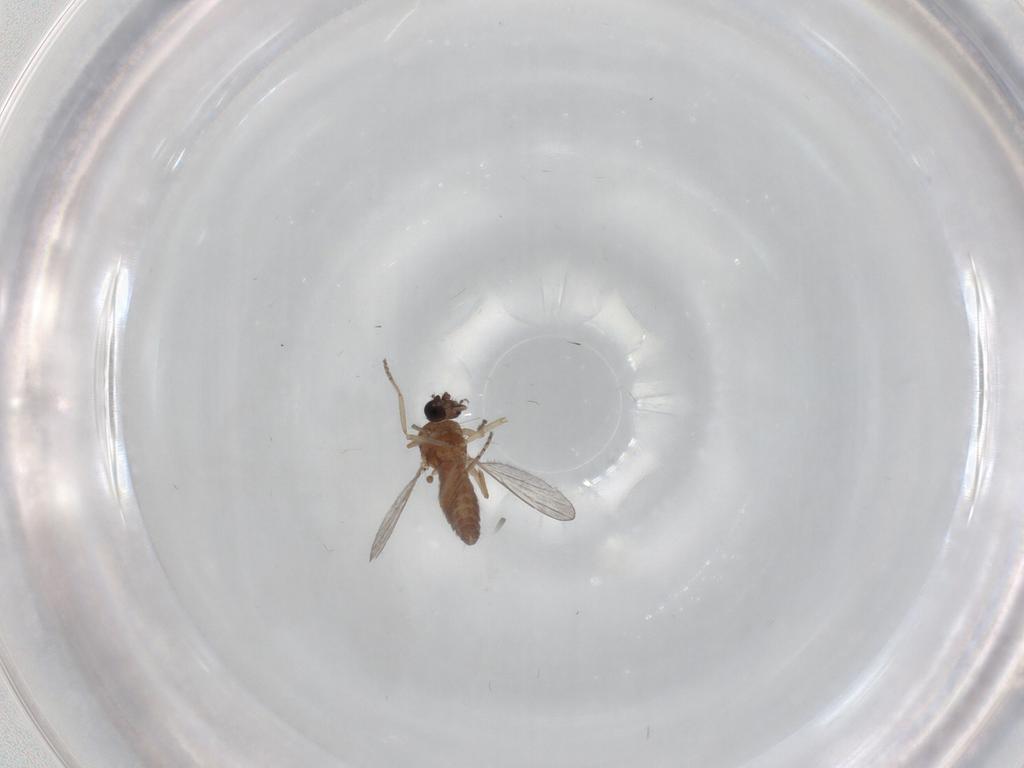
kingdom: Animalia
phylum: Arthropoda
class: Insecta
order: Diptera
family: Ceratopogonidae
